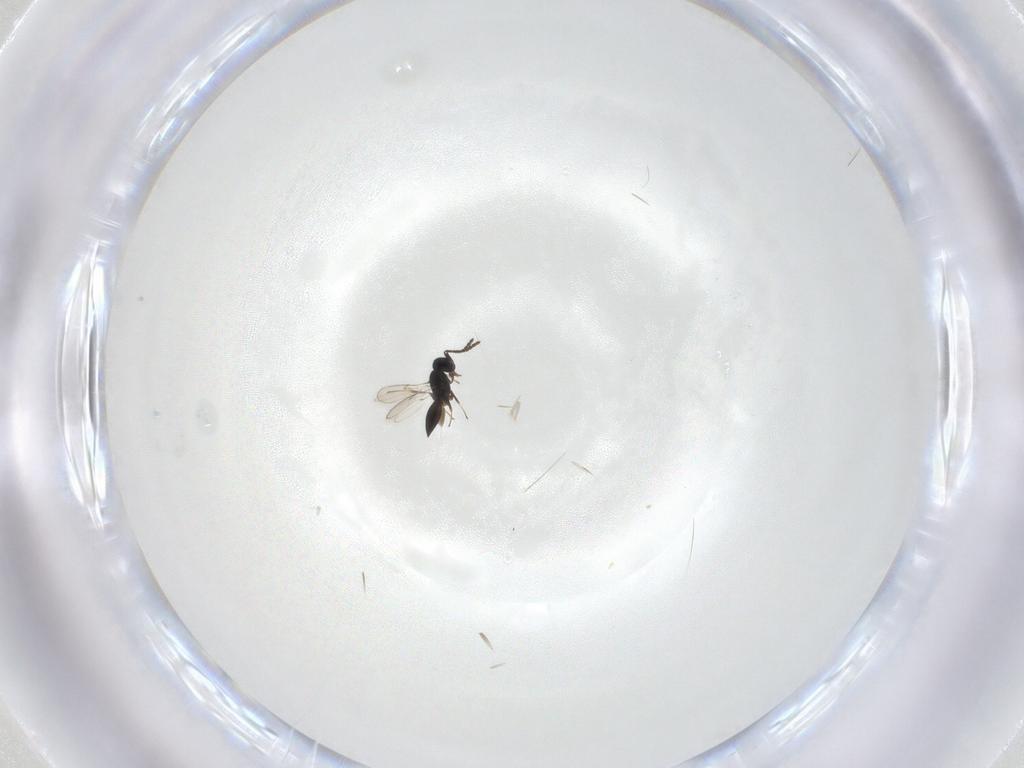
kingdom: Animalia
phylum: Arthropoda
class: Insecta
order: Hymenoptera
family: Scelionidae
